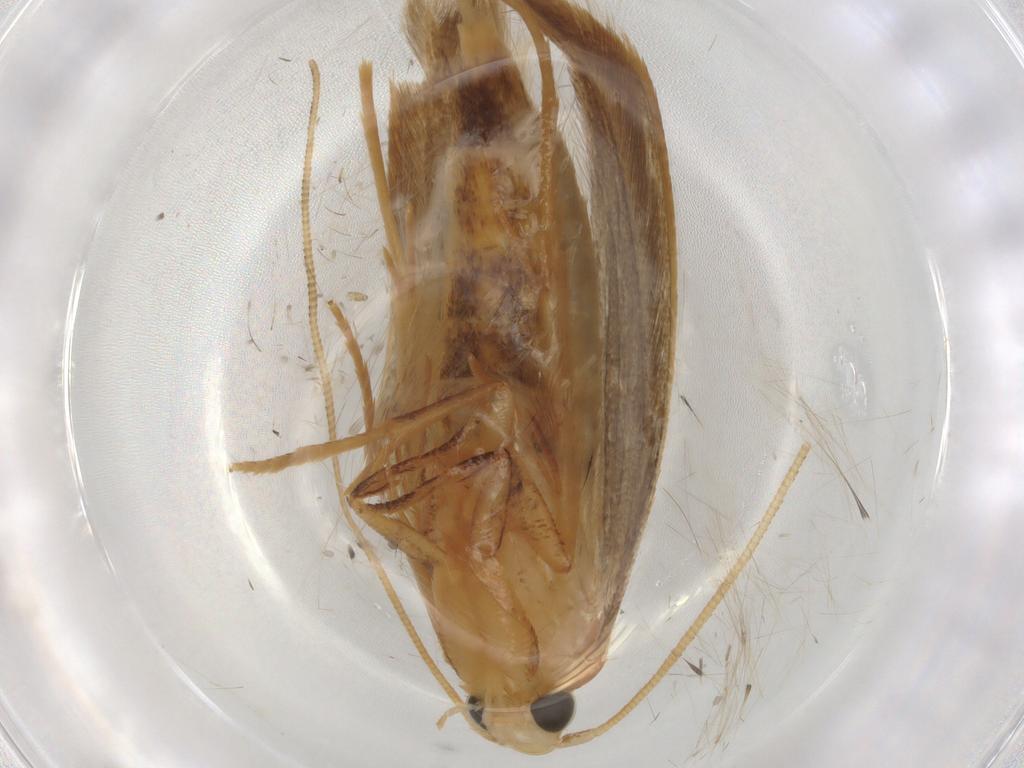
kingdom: Animalia
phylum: Arthropoda
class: Insecta
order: Lepidoptera
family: Tineidae
